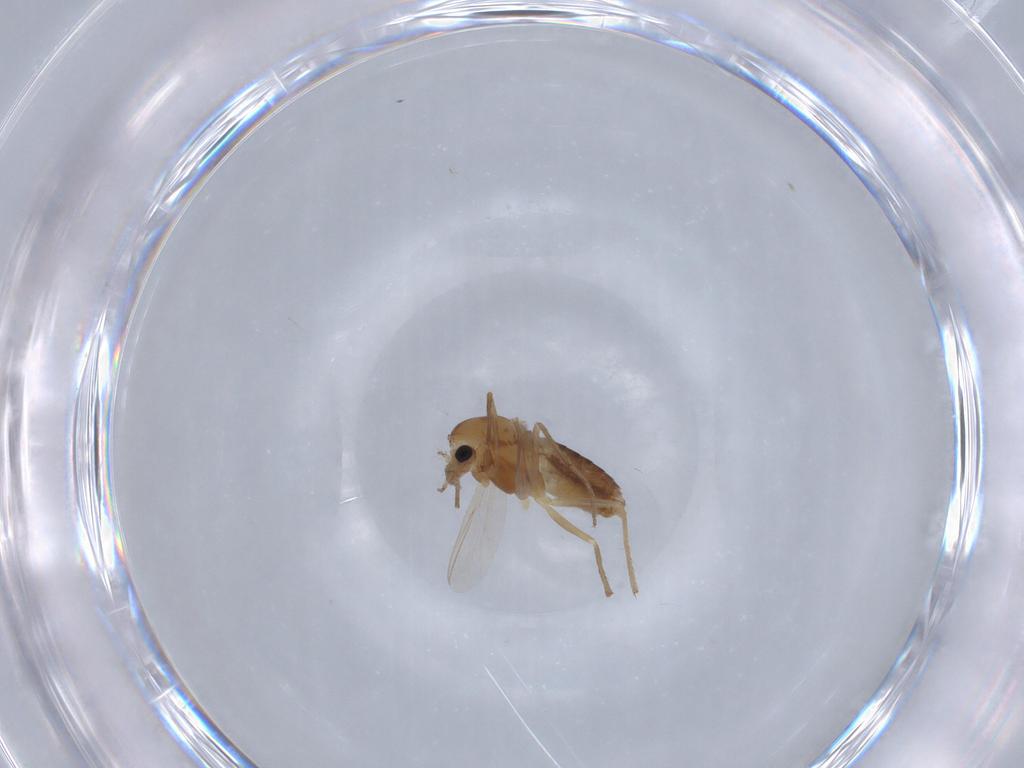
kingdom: Animalia
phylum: Arthropoda
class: Insecta
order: Diptera
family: Chironomidae
